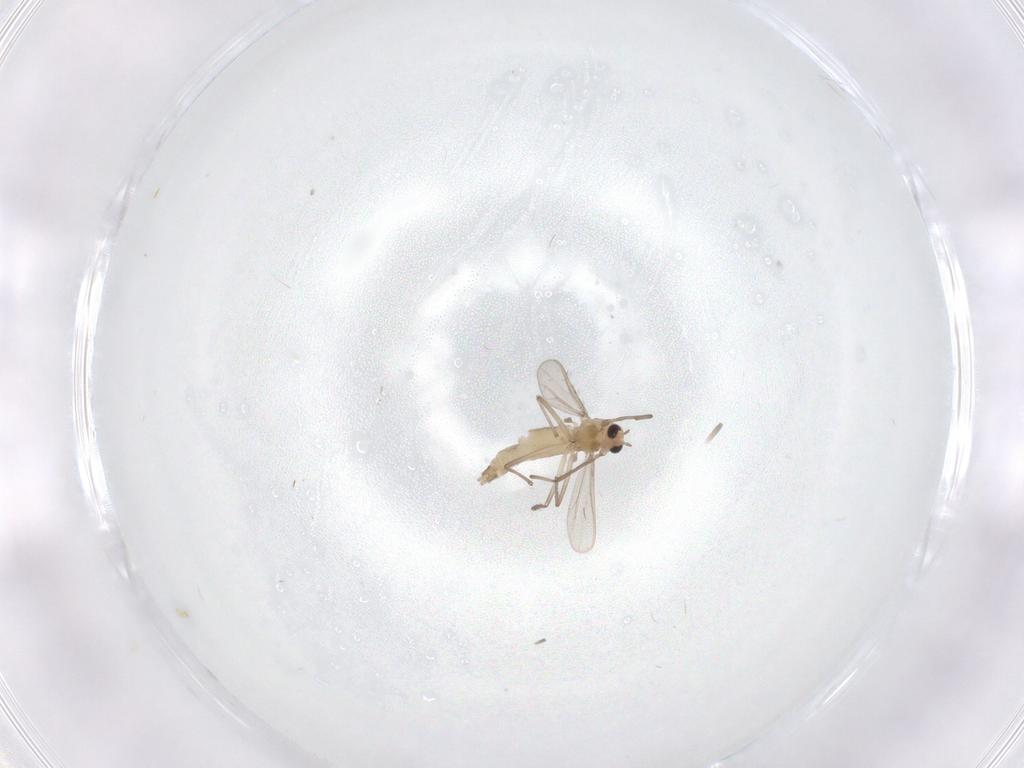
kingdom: Animalia
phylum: Arthropoda
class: Insecta
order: Diptera
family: Chironomidae
